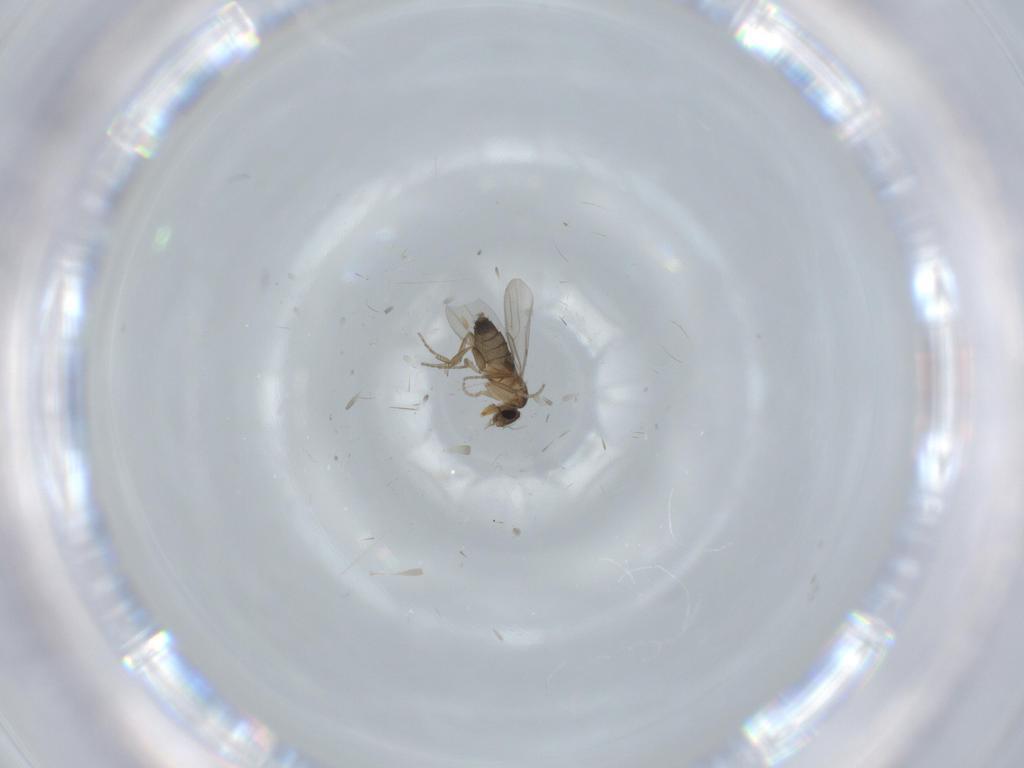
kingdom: Animalia
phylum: Arthropoda
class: Insecta
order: Diptera
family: Phoridae
